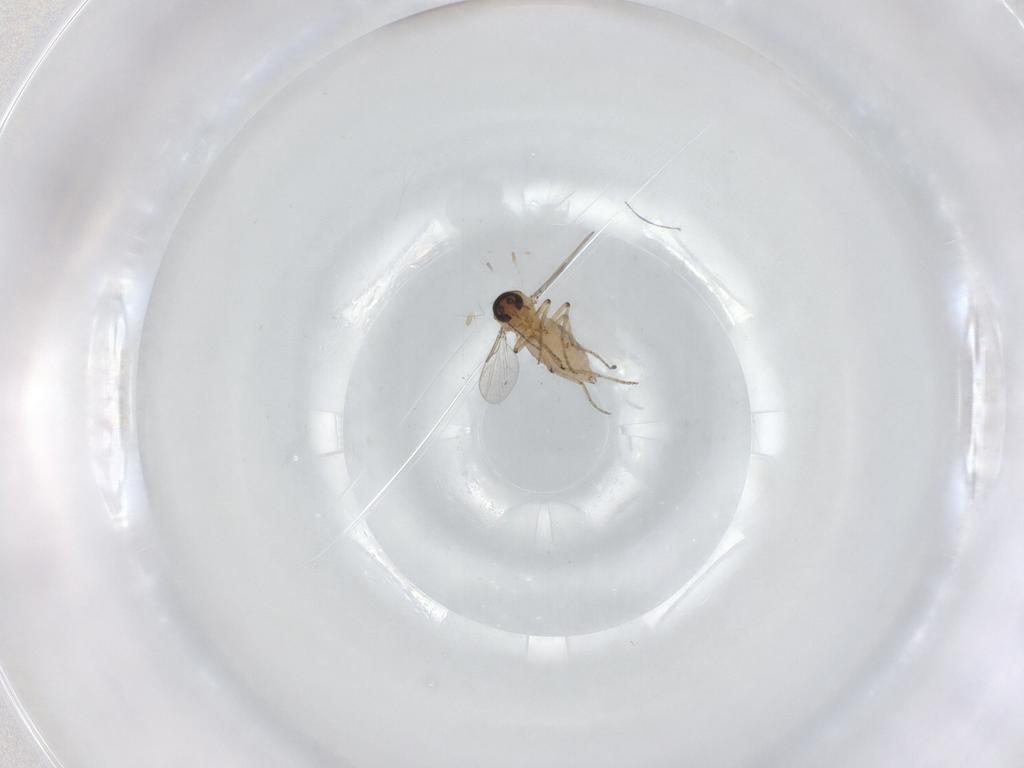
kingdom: Animalia
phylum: Arthropoda
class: Insecta
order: Diptera
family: Ceratopogonidae
